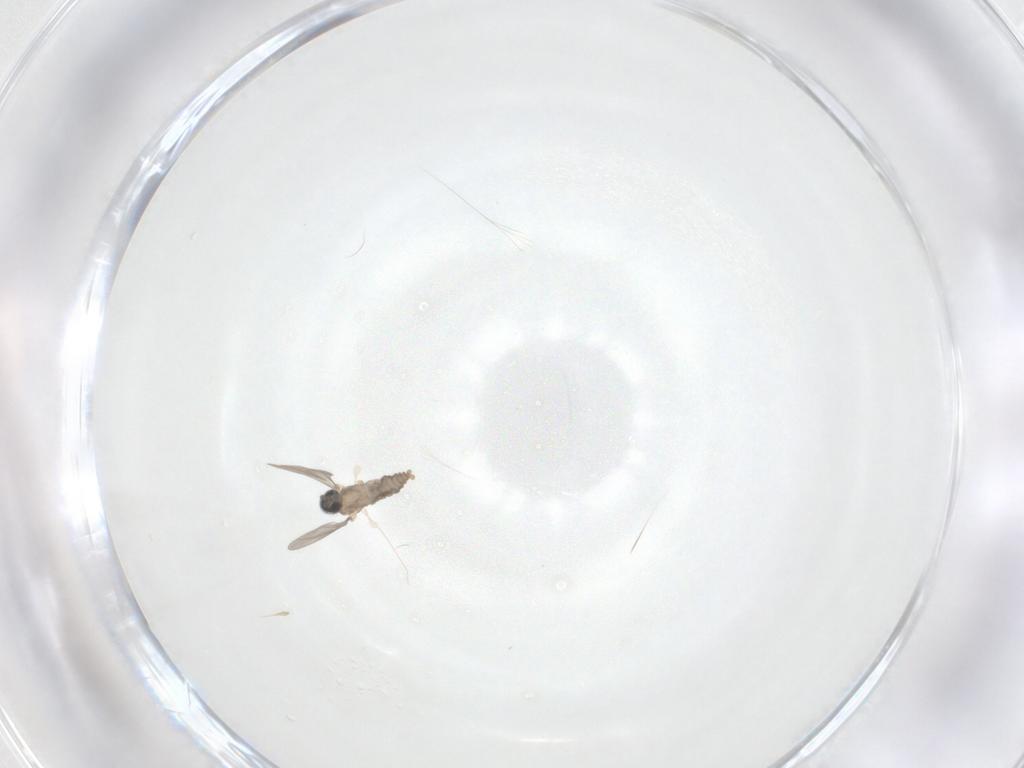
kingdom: Animalia
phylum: Arthropoda
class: Insecta
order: Diptera
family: Cecidomyiidae
